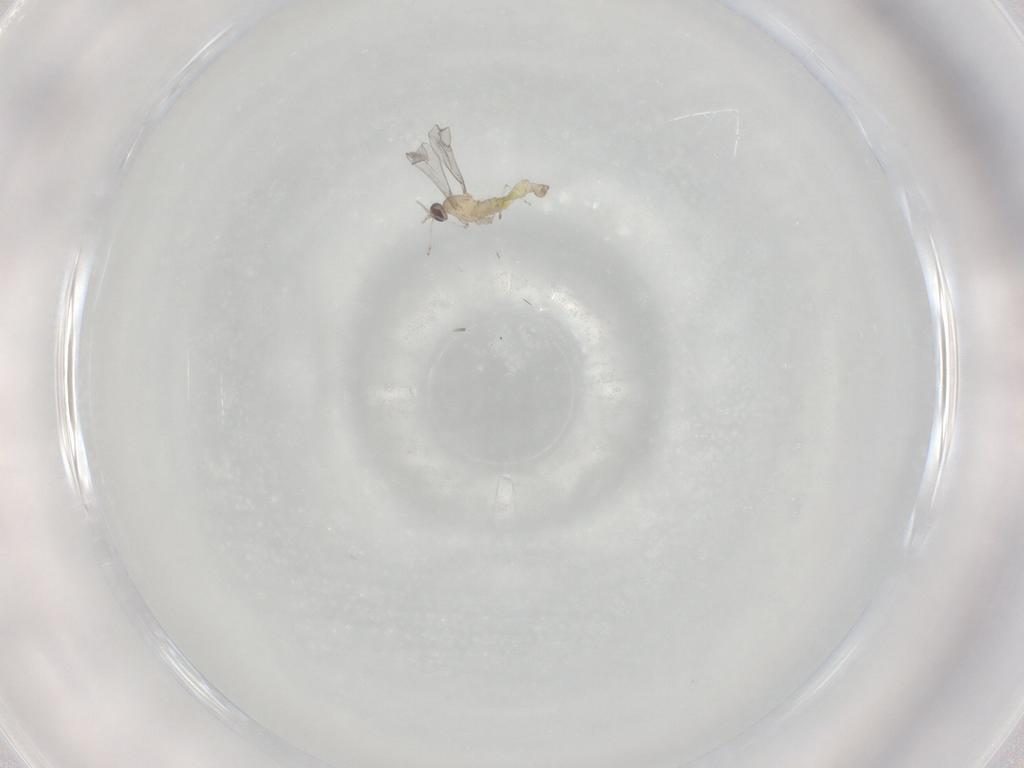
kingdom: Animalia
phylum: Arthropoda
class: Insecta
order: Diptera
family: Cecidomyiidae
